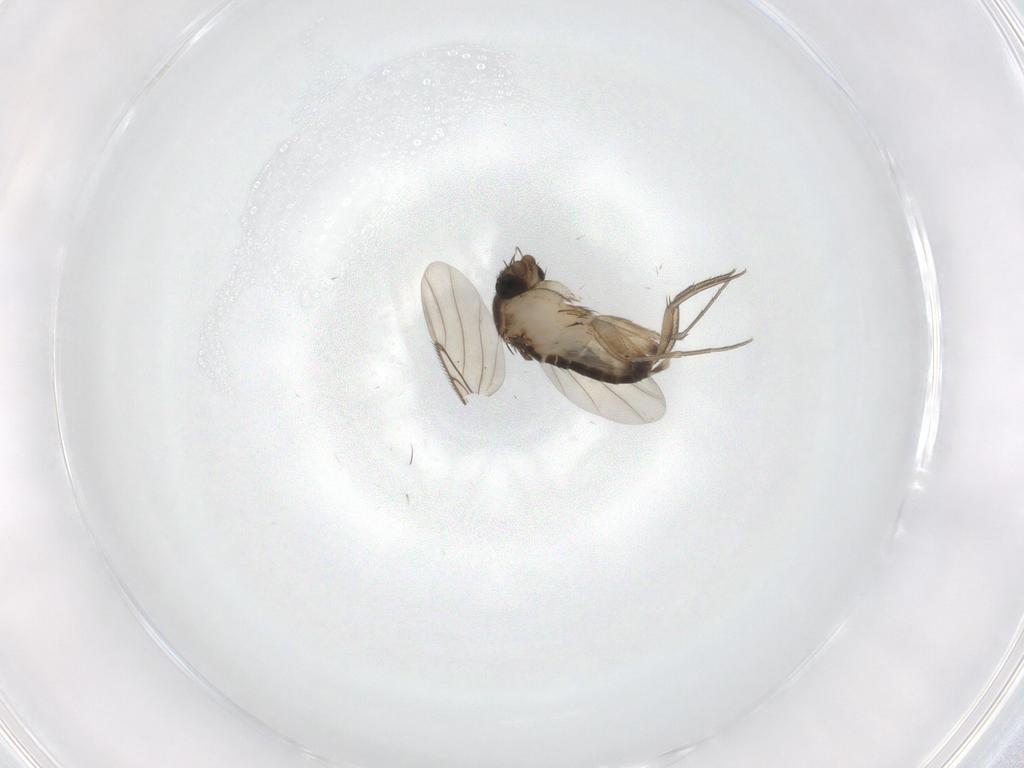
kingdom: Animalia
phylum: Arthropoda
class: Insecta
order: Diptera
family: Phoridae
